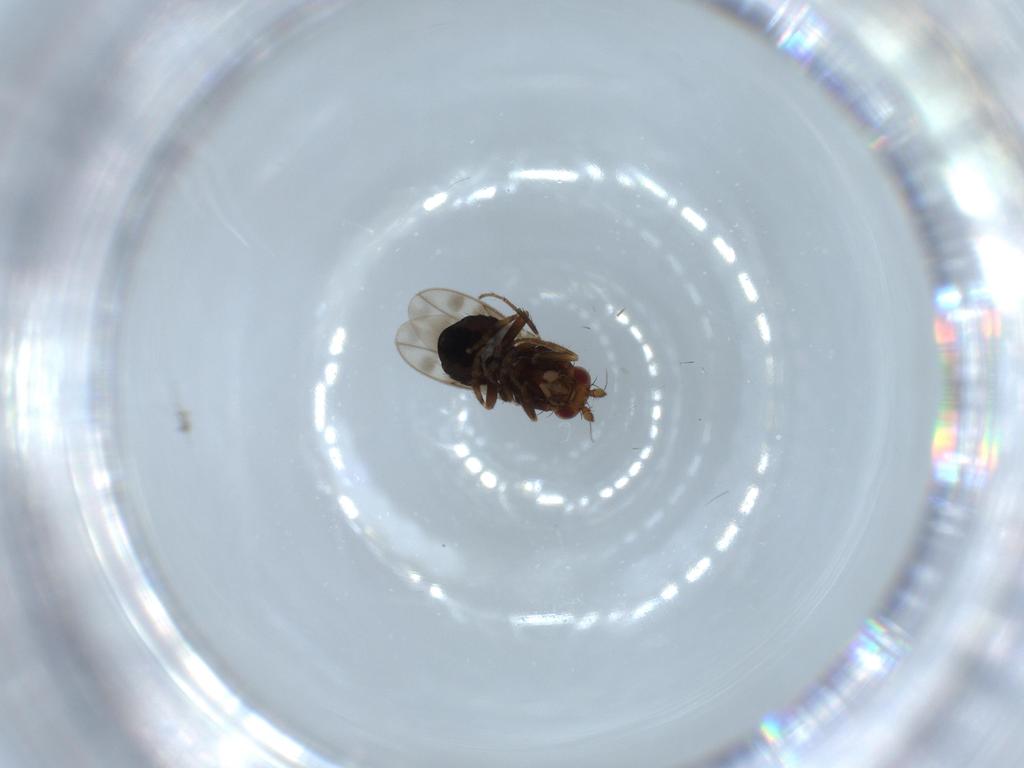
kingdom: Animalia
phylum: Arthropoda
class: Insecta
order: Diptera
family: Sphaeroceridae
